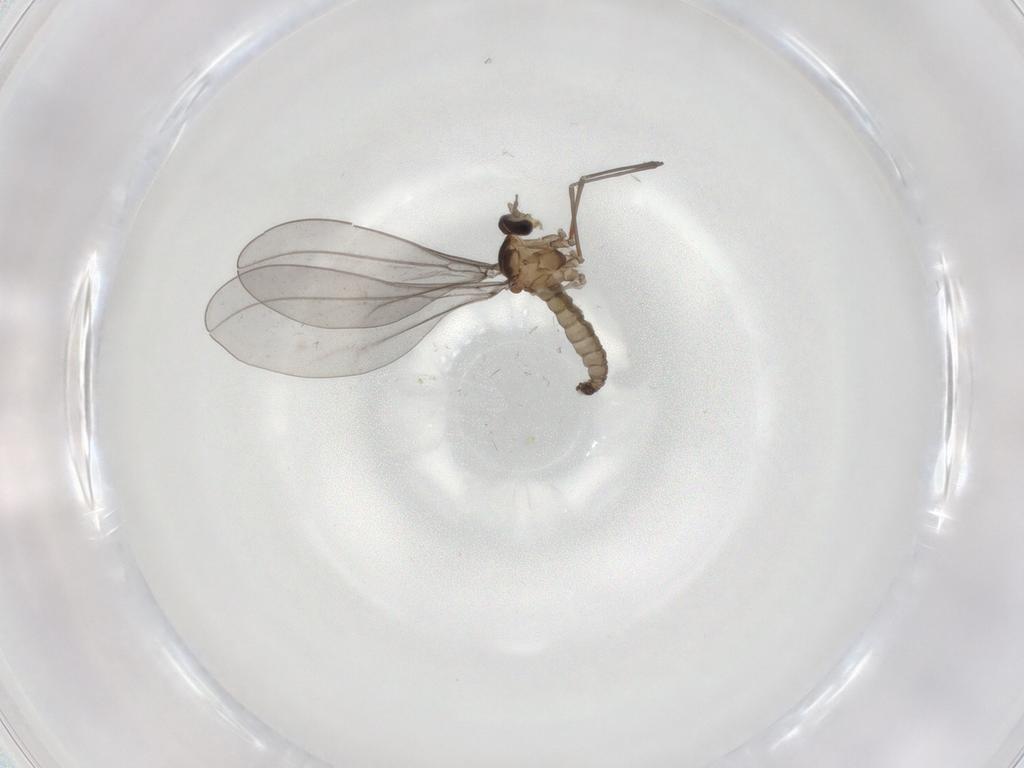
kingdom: Animalia
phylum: Arthropoda
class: Insecta
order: Diptera
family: Cecidomyiidae
